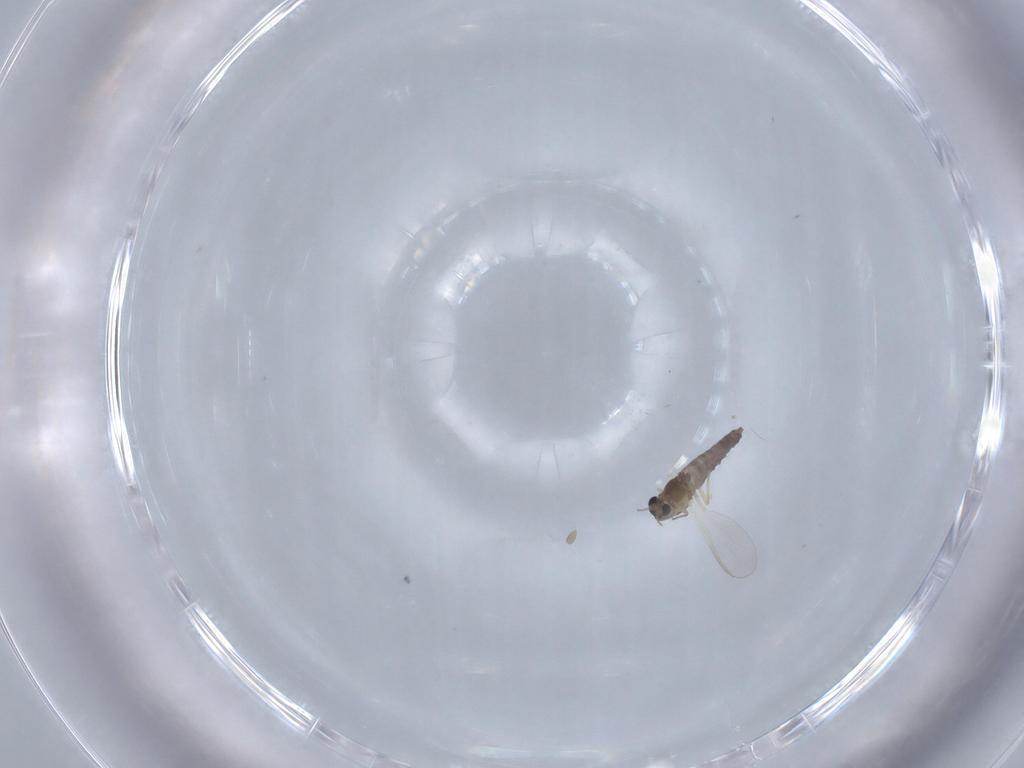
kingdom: Animalia
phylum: Arthropoda
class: Insecta
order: Diptera
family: Chironomidae
